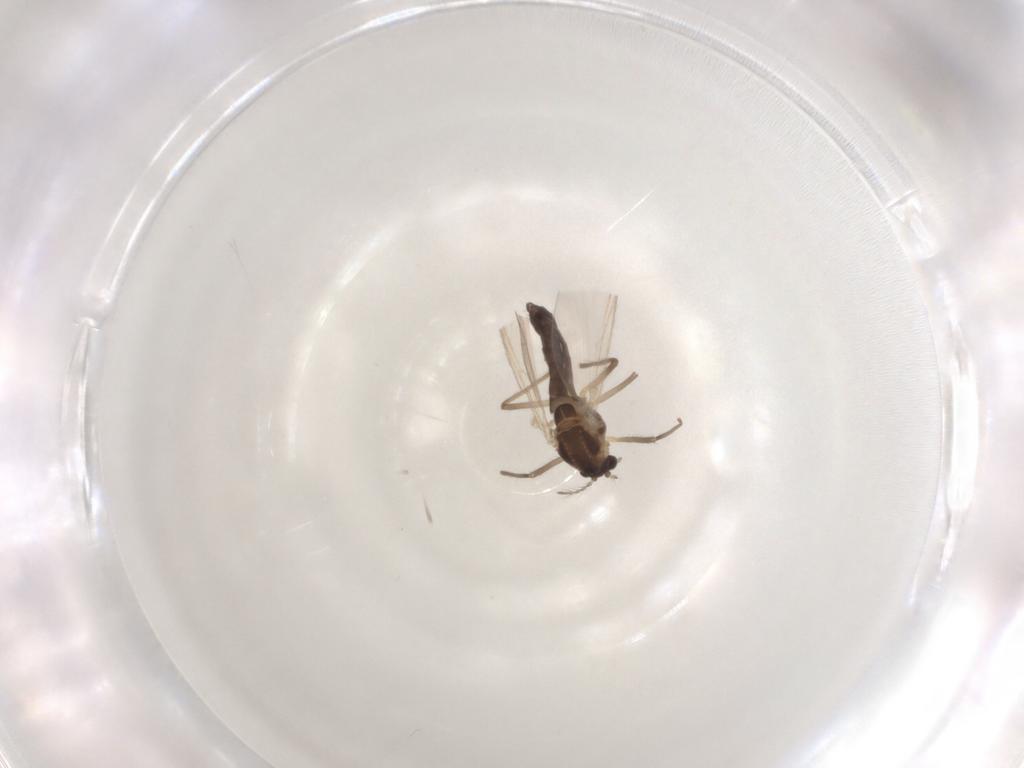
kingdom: Animalia
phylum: Arthropoda
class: Insecta
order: Diptera
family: Chironomidae
